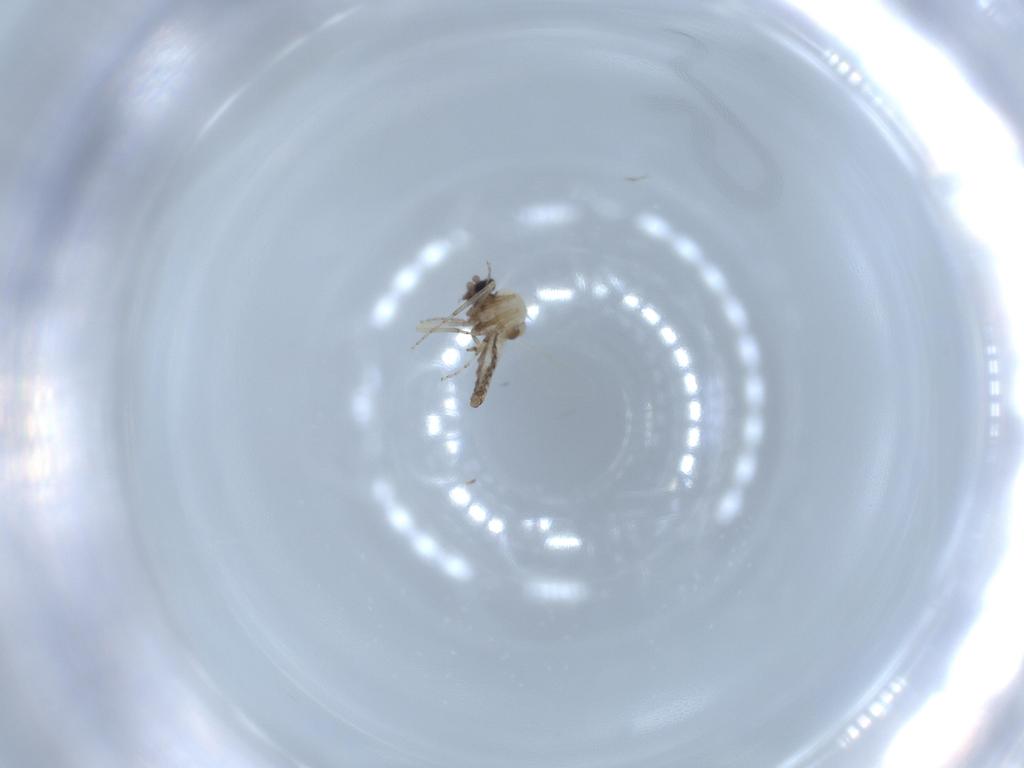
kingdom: Animalia
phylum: Arthropoda
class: Insecta
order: Diptera
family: Ceratopogonidae
